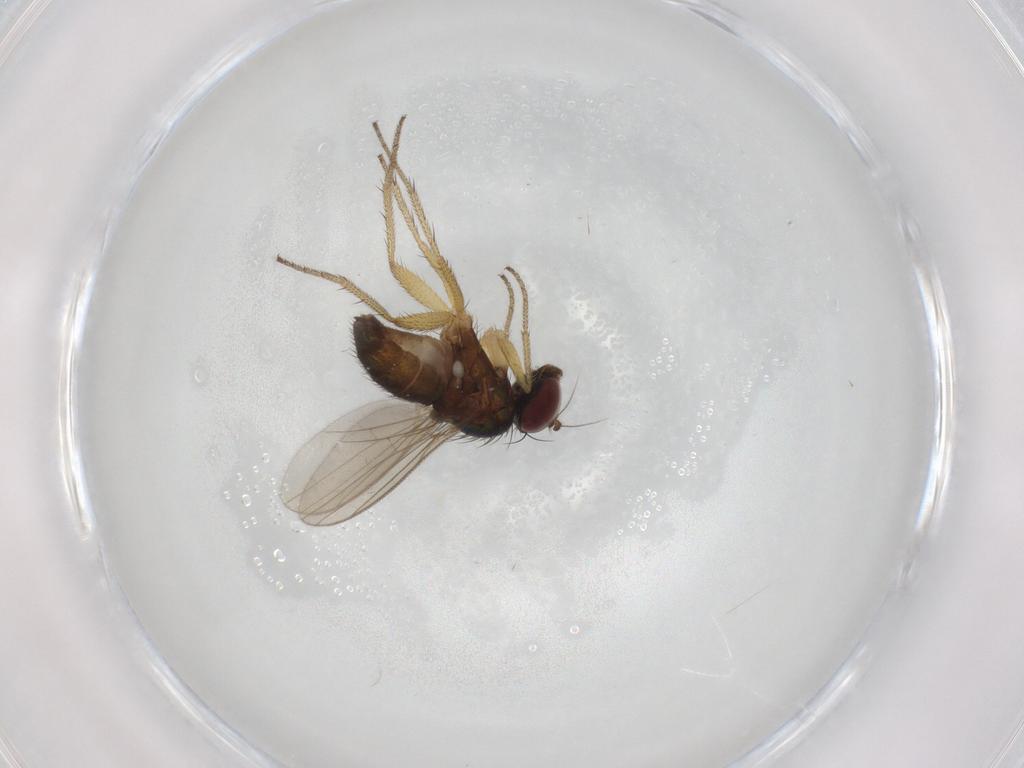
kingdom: Animalia
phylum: Arthropoda
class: Insecta
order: Diptera
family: Dolichopodidae
